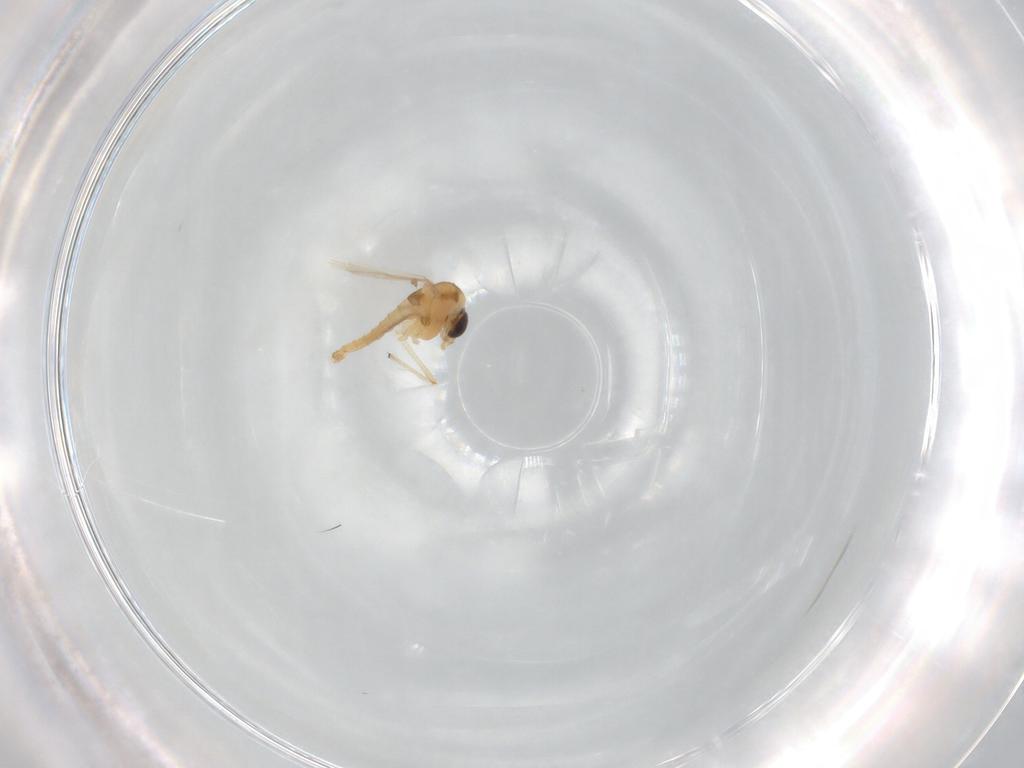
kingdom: Animalia
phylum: Arthropoda
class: Insecta
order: Diptera
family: Chironomidae
